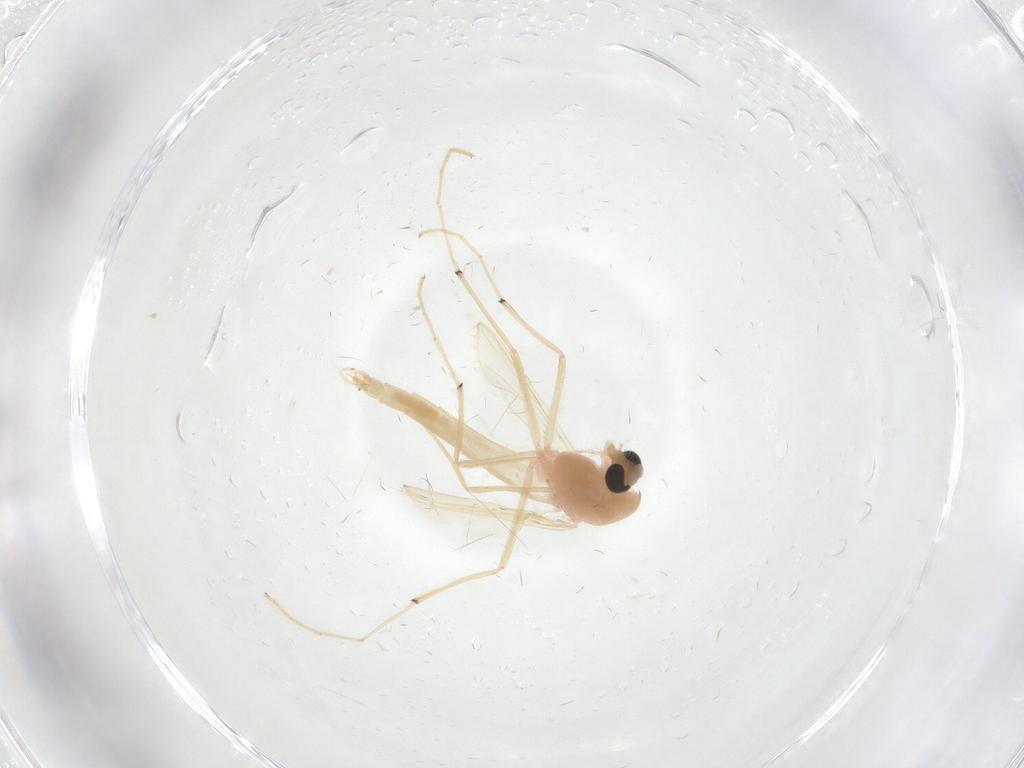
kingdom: Animalia
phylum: Arthropoda
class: Insecta
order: Diptera
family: Chironomidae
